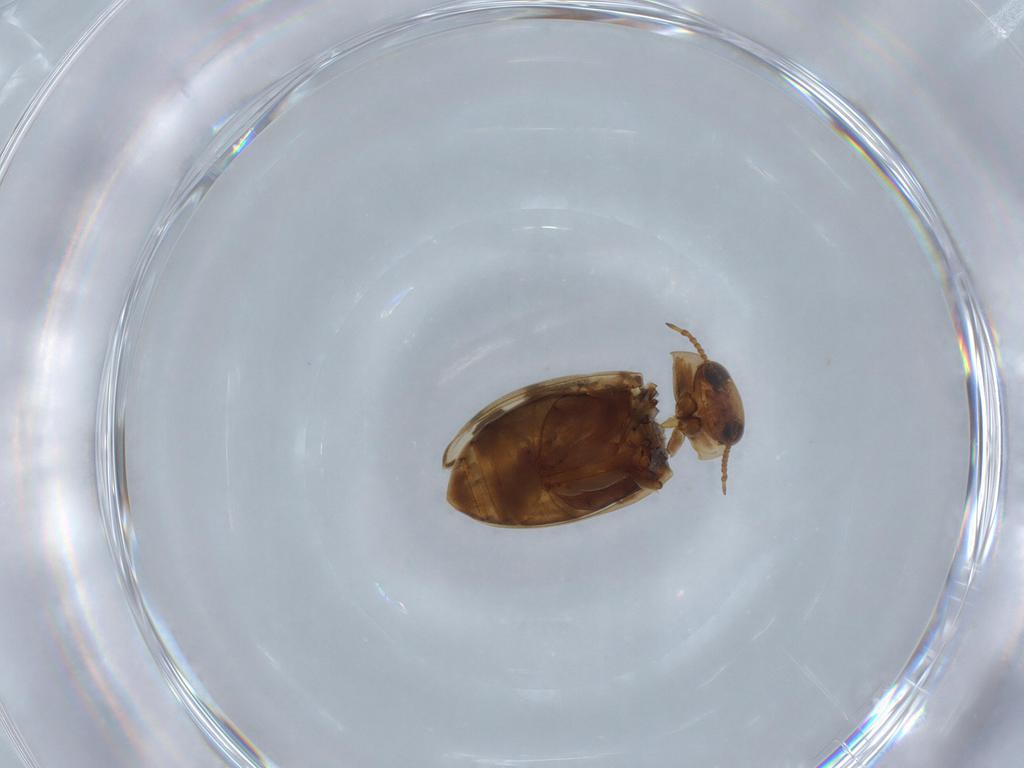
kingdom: Animalia
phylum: Arthropoda
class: Insecta
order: Coleoptera
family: Dytiscidae
